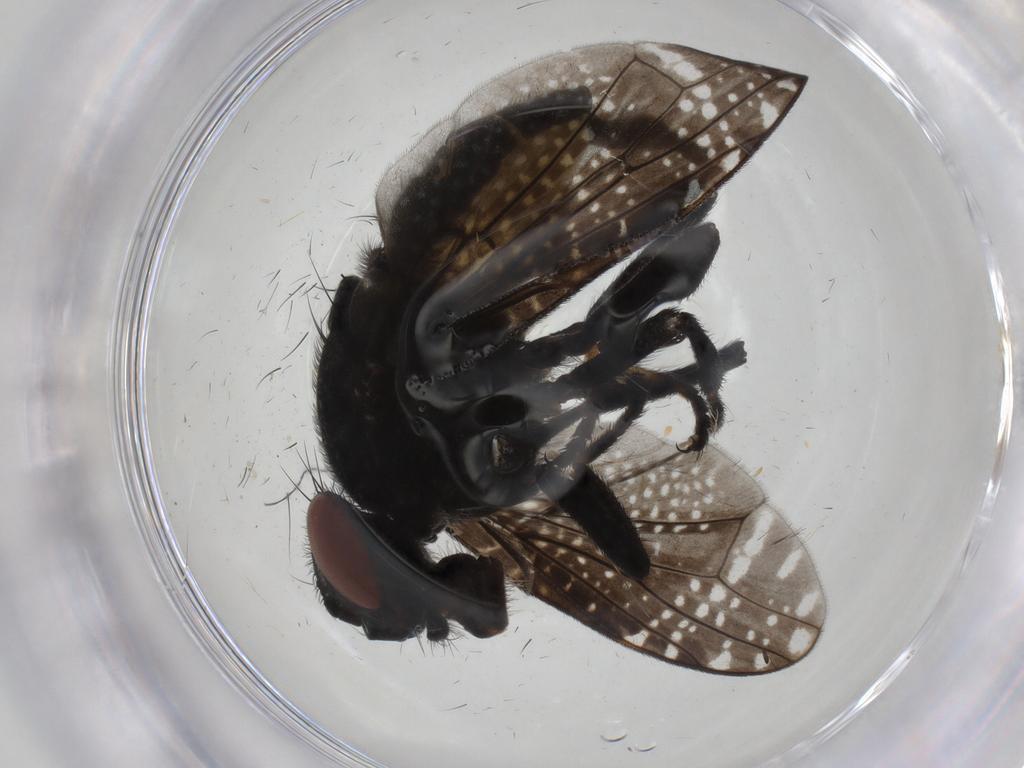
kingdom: Animalia
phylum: Arthropoda
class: Insecta
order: Diptera
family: Platystomatidae
